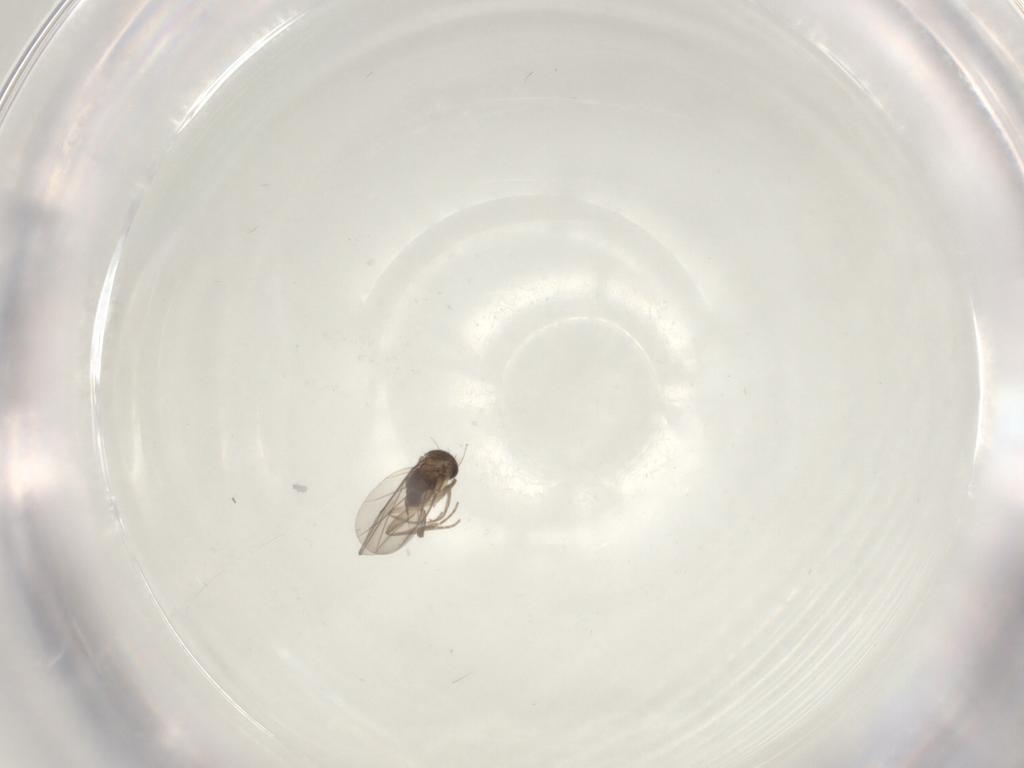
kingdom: Animalia
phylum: Arthropoda
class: Insecta
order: Diptera
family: Phoridae
